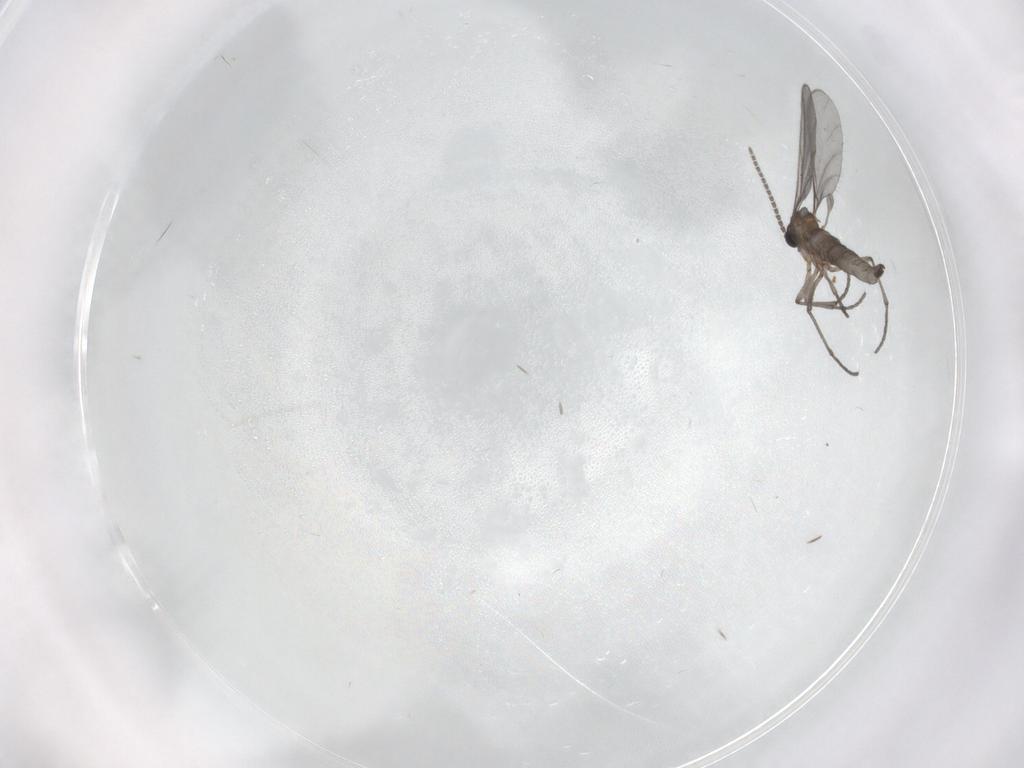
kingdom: Animalia
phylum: Arthropoda
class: Insecta
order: Diptera
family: Sciaridae
